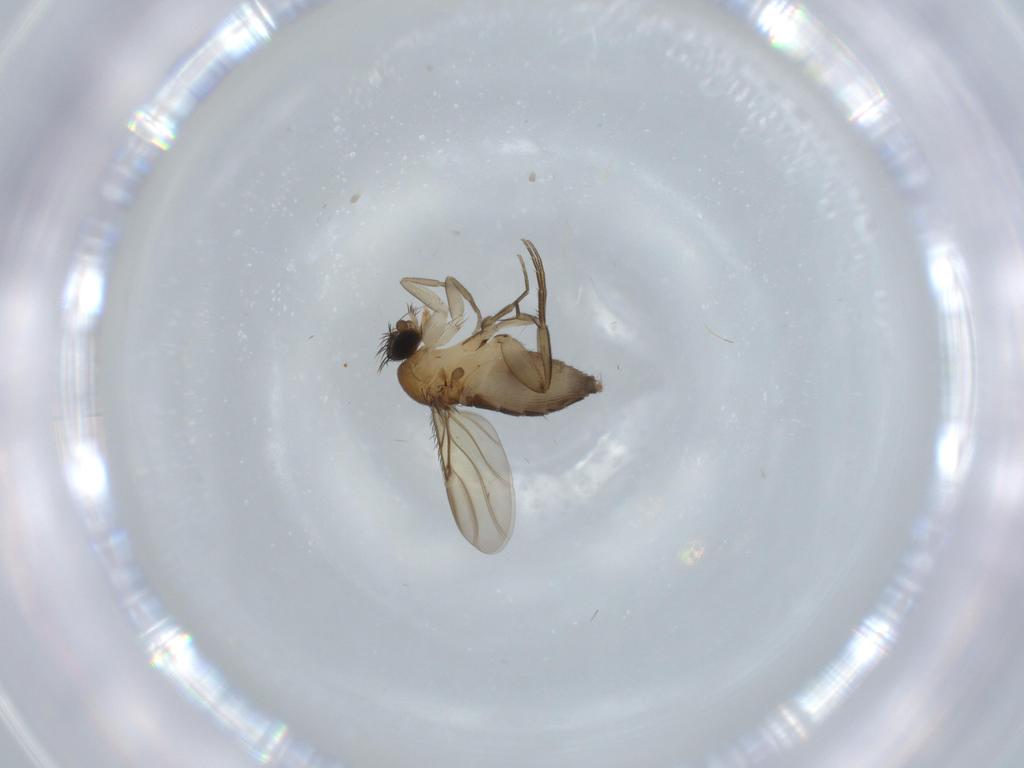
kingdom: Animalia
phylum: Arthropoda
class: Insecta
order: Diptera
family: Phoridae
